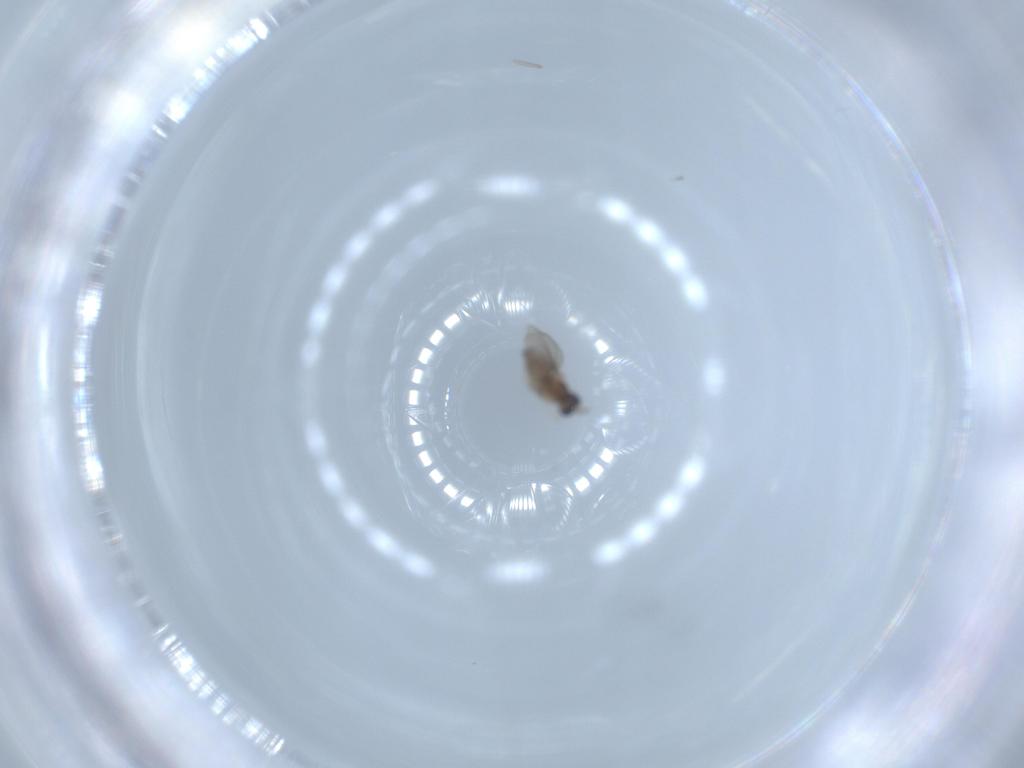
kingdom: Animalia
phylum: Arthropoda
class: Insecta
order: Diptera
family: Cecidomyiidae
